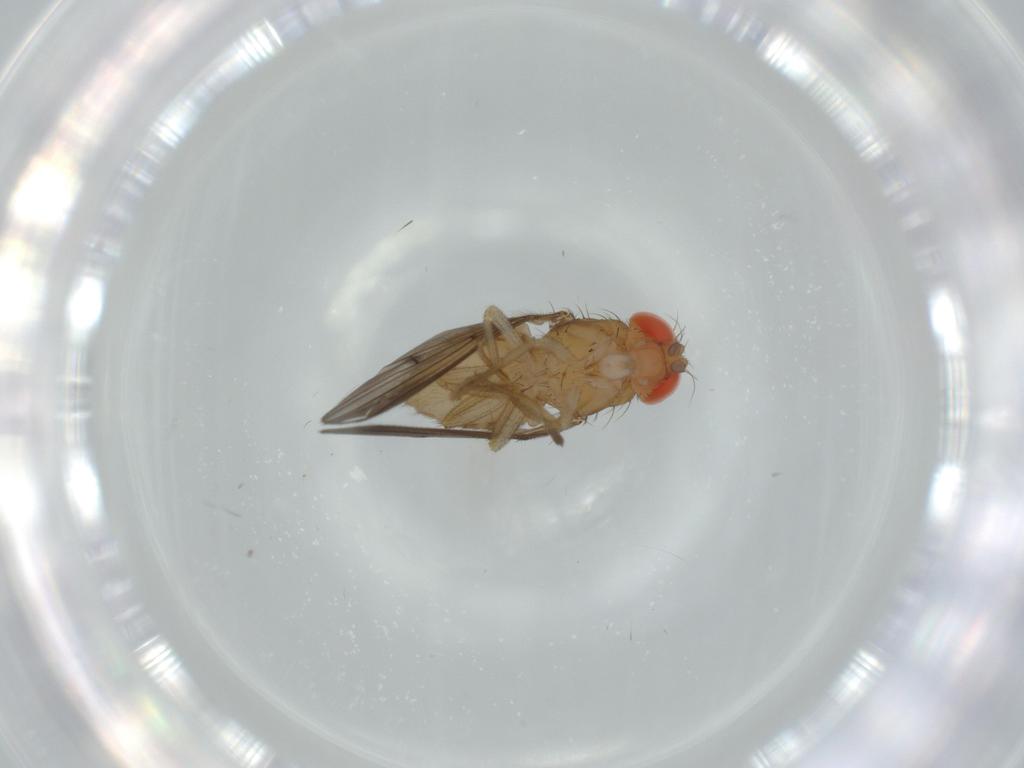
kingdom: Animalia
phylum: Arthropoda
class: Insecta
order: Diptera
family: Drosophilidae
